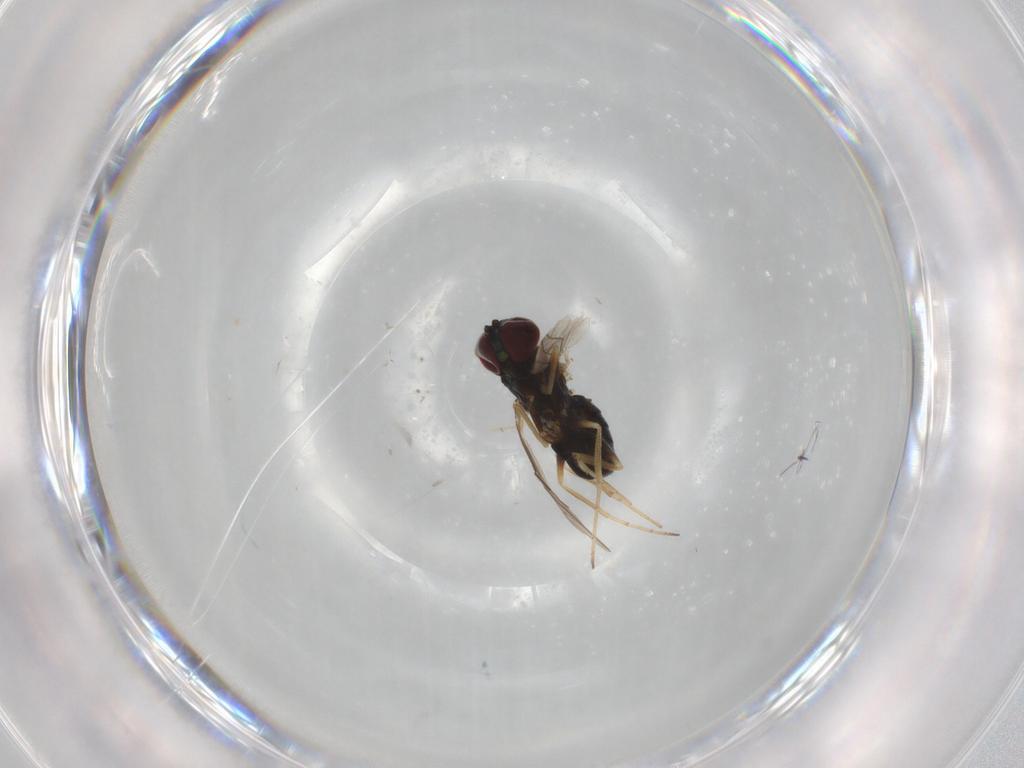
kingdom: Animalia
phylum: Arthropoda
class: Insecta
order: Diptera
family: Dolichopodidae
